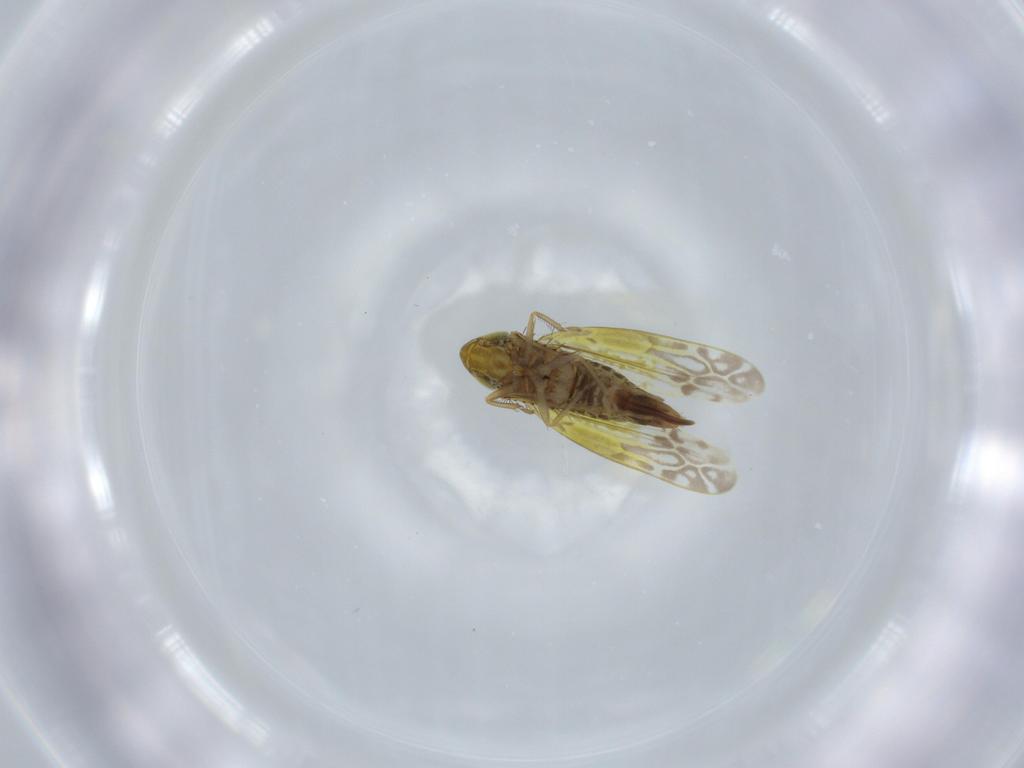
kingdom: Animalia
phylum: Arthropoda
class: Insecta
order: Hemiptera
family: Cicadellidae
